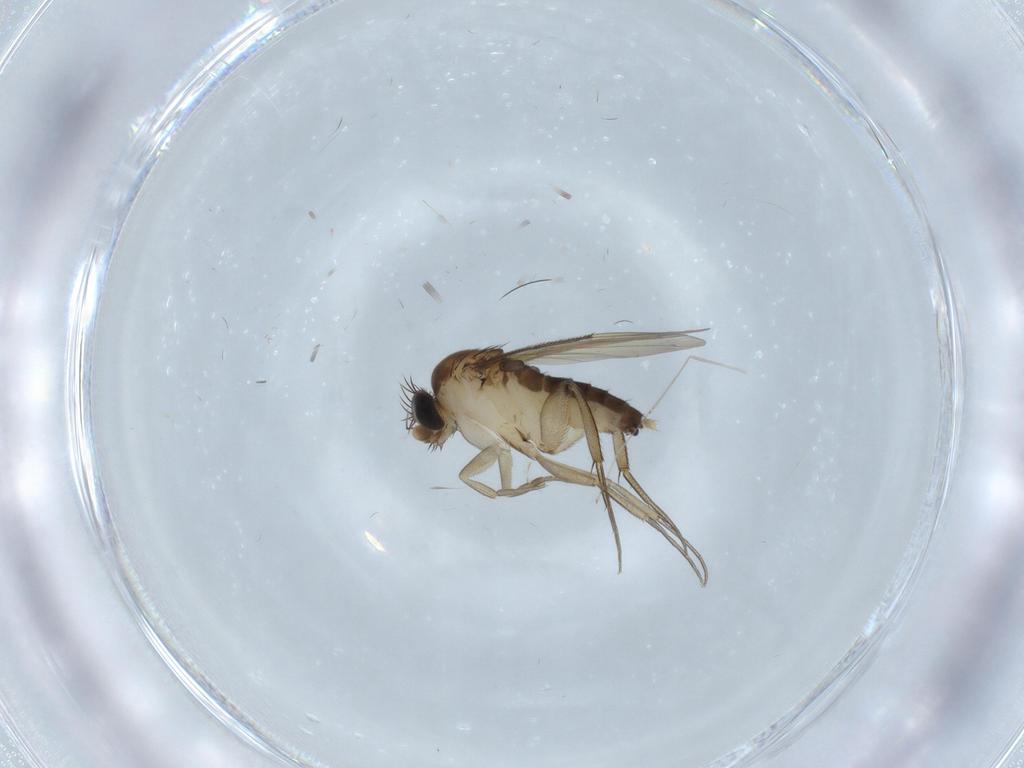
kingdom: Animalia
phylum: Arthropoda
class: Insecta
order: Diptera
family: Phoridae
